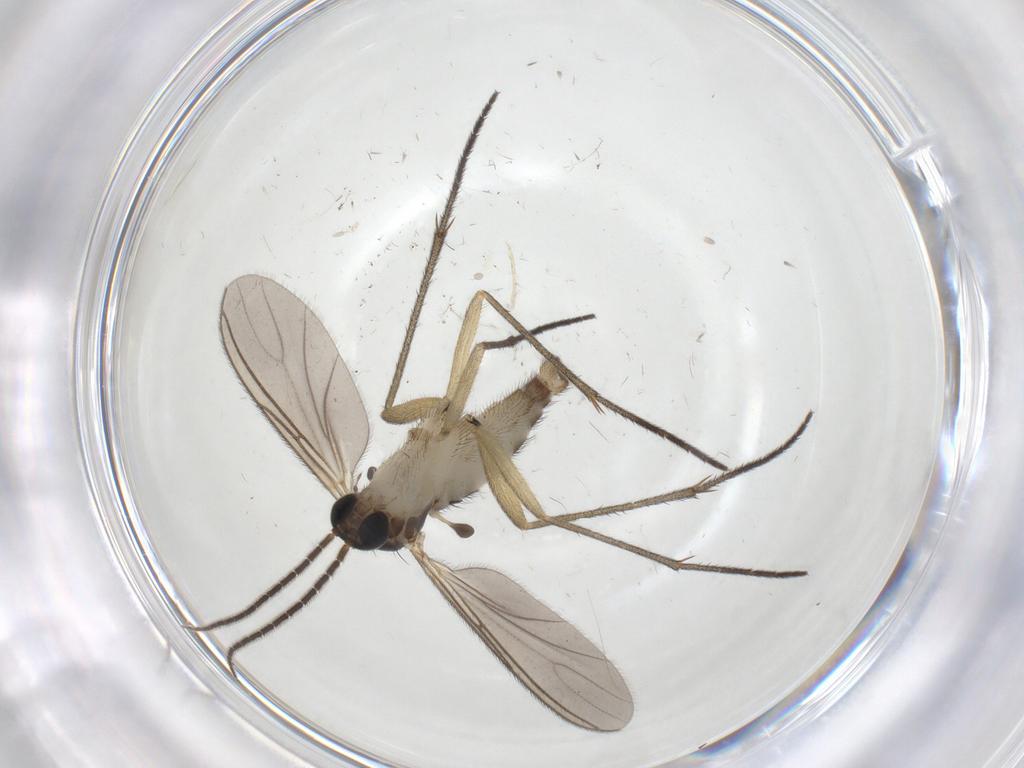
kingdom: Animalia
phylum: Arthropoda
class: Insecta
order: Diptera
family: Sciaridae
